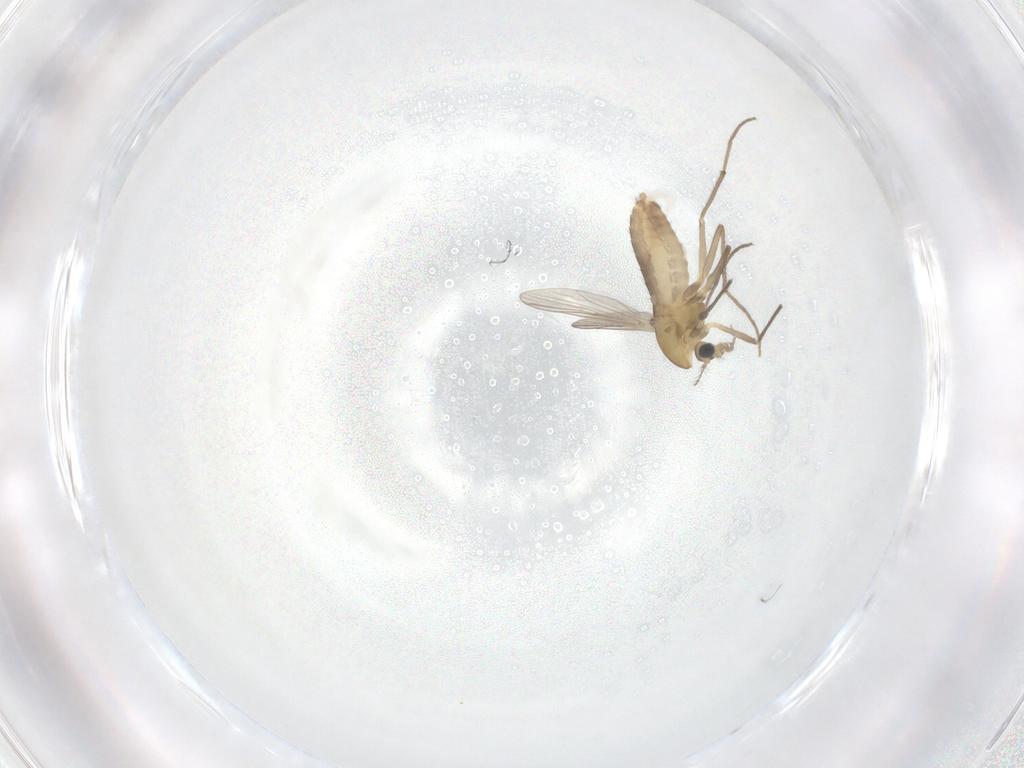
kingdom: Animalia
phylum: Arthropoda
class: Insecta
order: Diptera
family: Chironomidae
